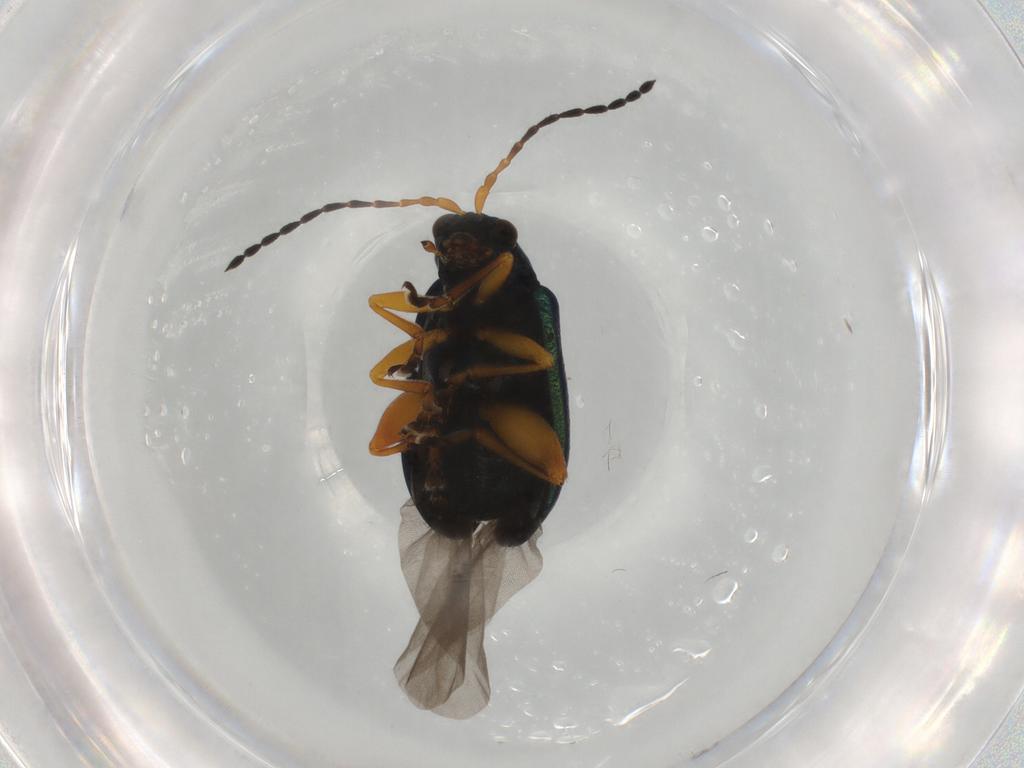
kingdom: Animalia
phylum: Arthropoda
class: Insecta
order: Coleoptera
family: Chrysomelidae
